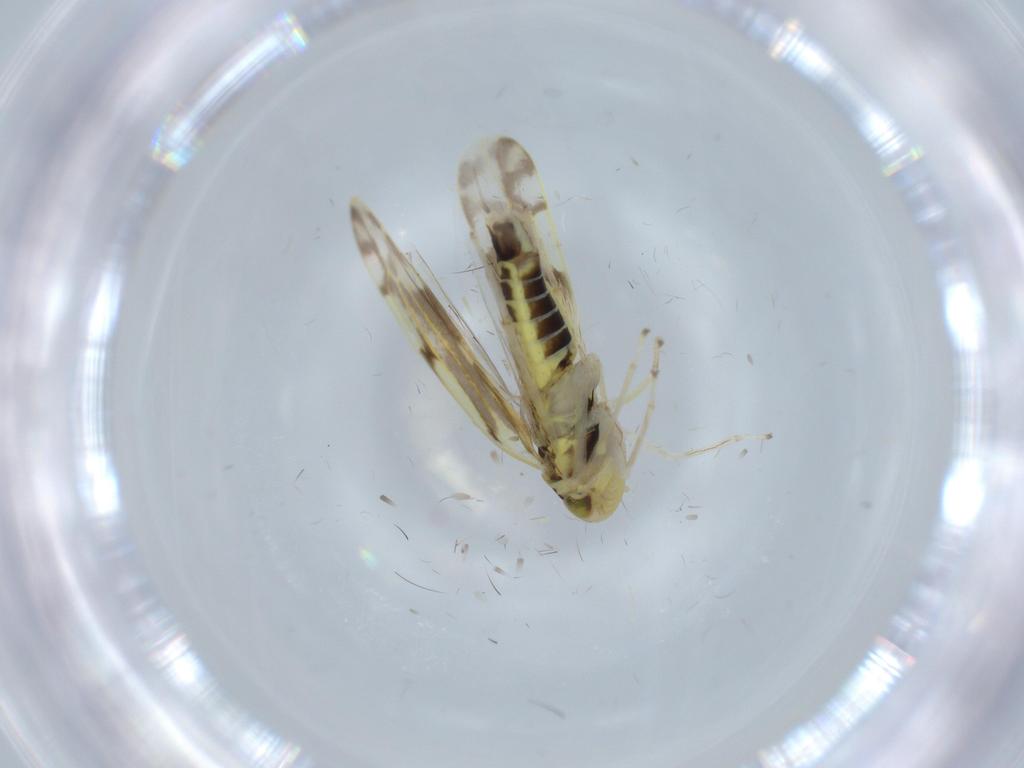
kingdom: Animalia
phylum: Arthropoda
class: Insecta
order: Hemiptera
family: Cicadellidae
